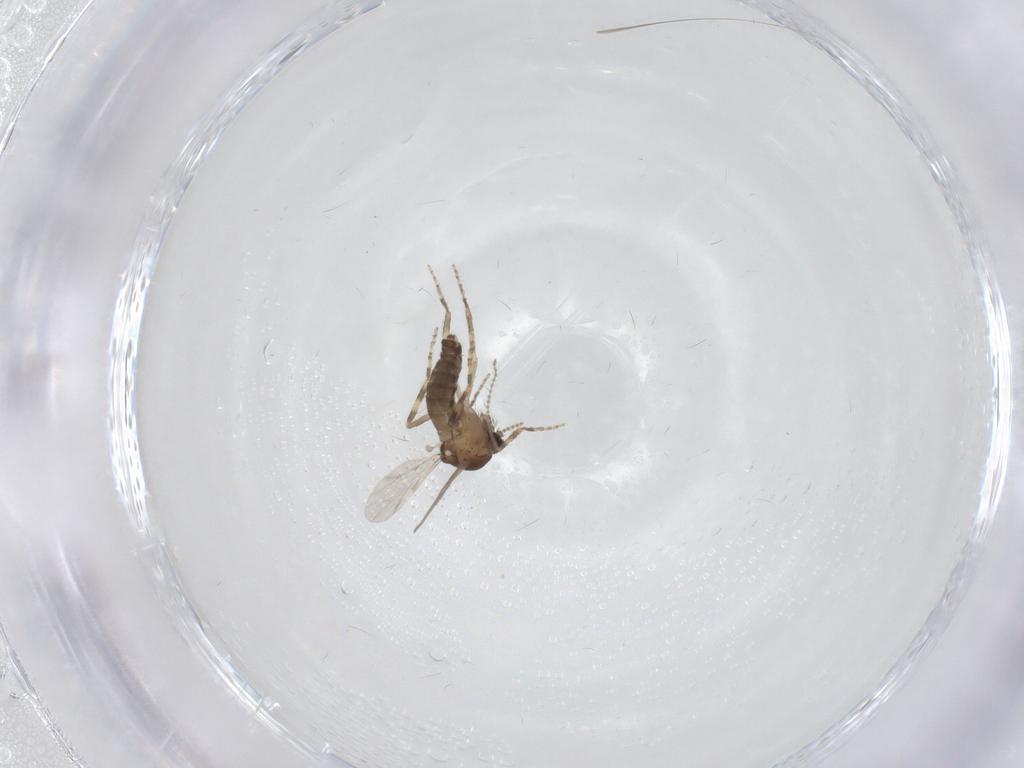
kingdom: Animalia
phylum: Arthropoda
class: Insecta
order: Diptera
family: Ceratopogonidae
